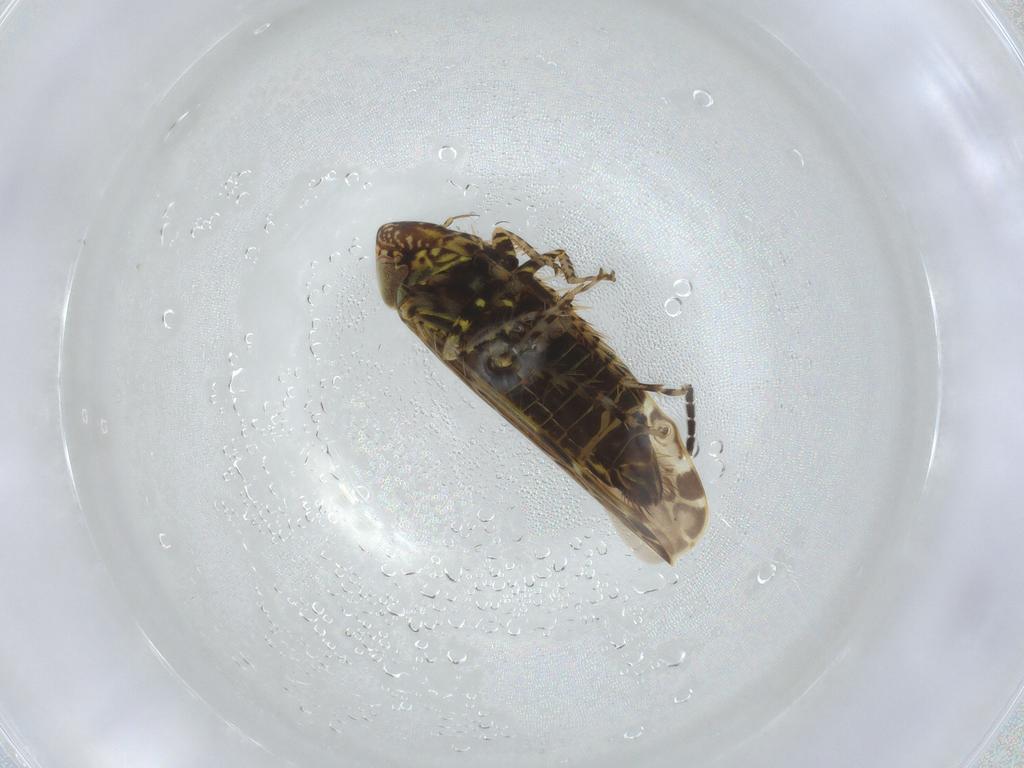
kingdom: Animalia
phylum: Arthropoda
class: Insecta
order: Hemiptera
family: Cicadellidae
